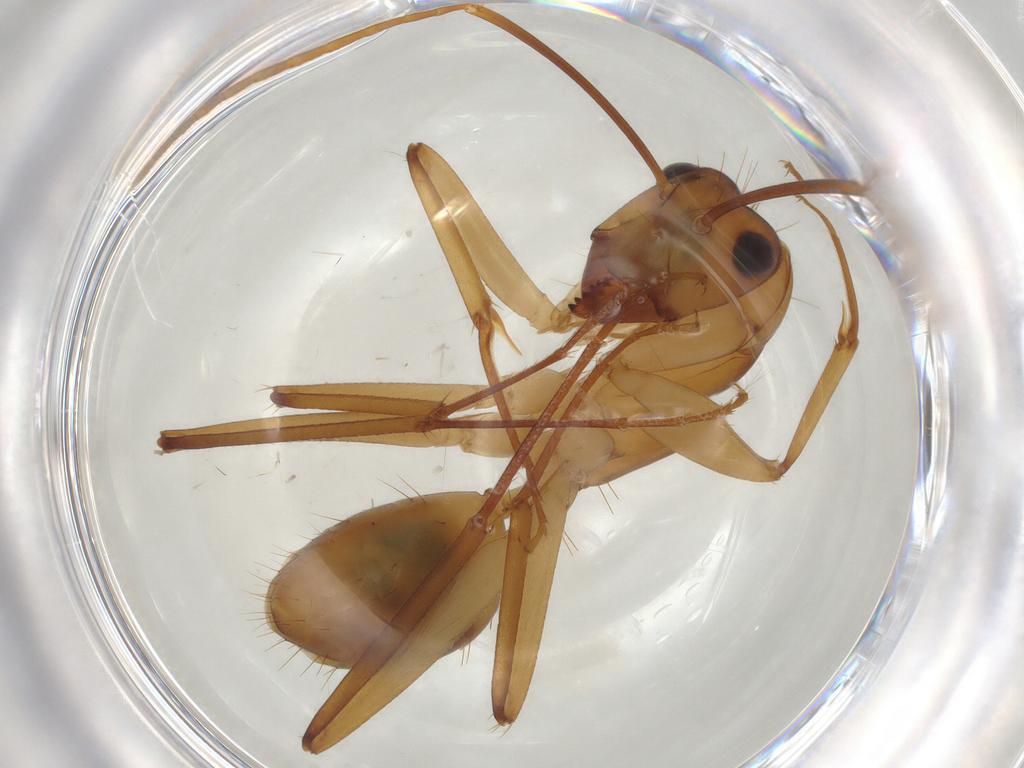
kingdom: Animalia
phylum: Arthropoda
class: Insecta
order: Hymenoptera
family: Formicidae
